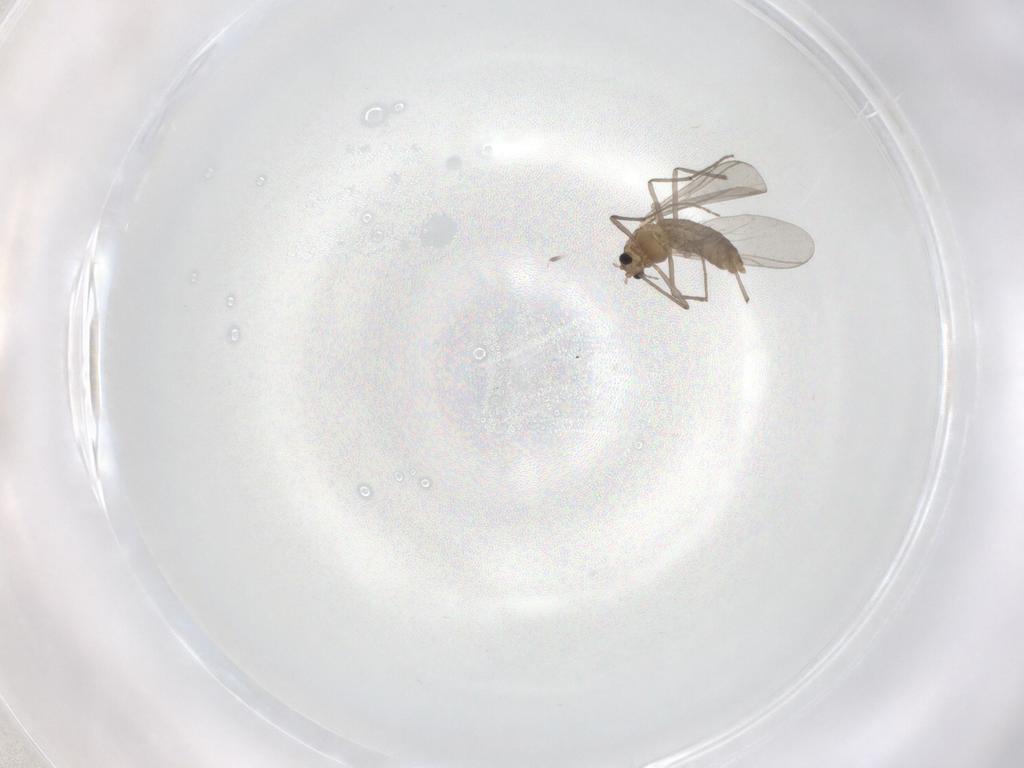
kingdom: Animalia
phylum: Arthropoda
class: Insecta
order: Diptera
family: Chironomidae
